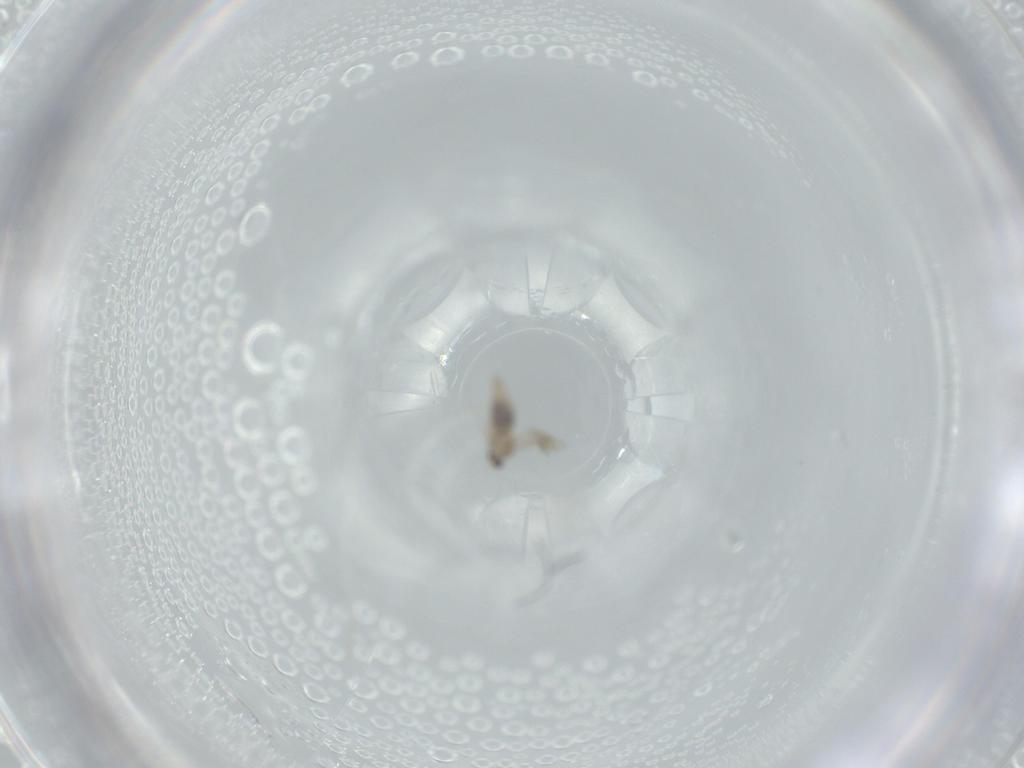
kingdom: Animalia
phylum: Arthropoda
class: Insecta
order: Diptera
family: Cecidomyiidae
